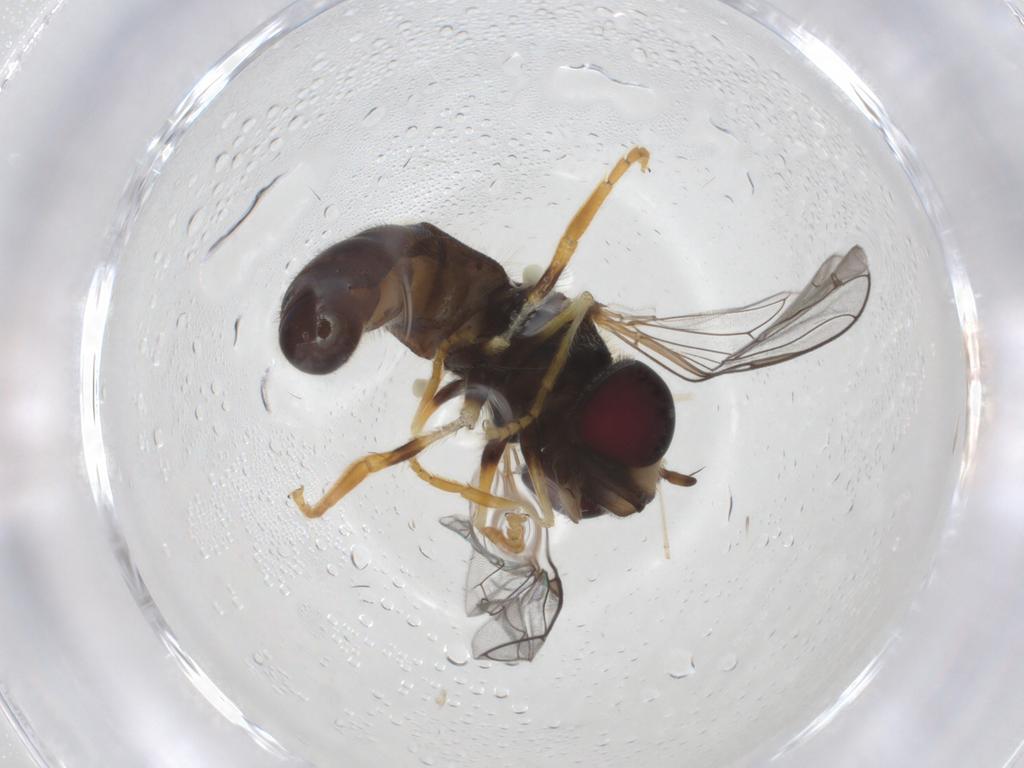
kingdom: Animalia
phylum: Arthropoda
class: Insecta
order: Diptera
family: Syrphidae
